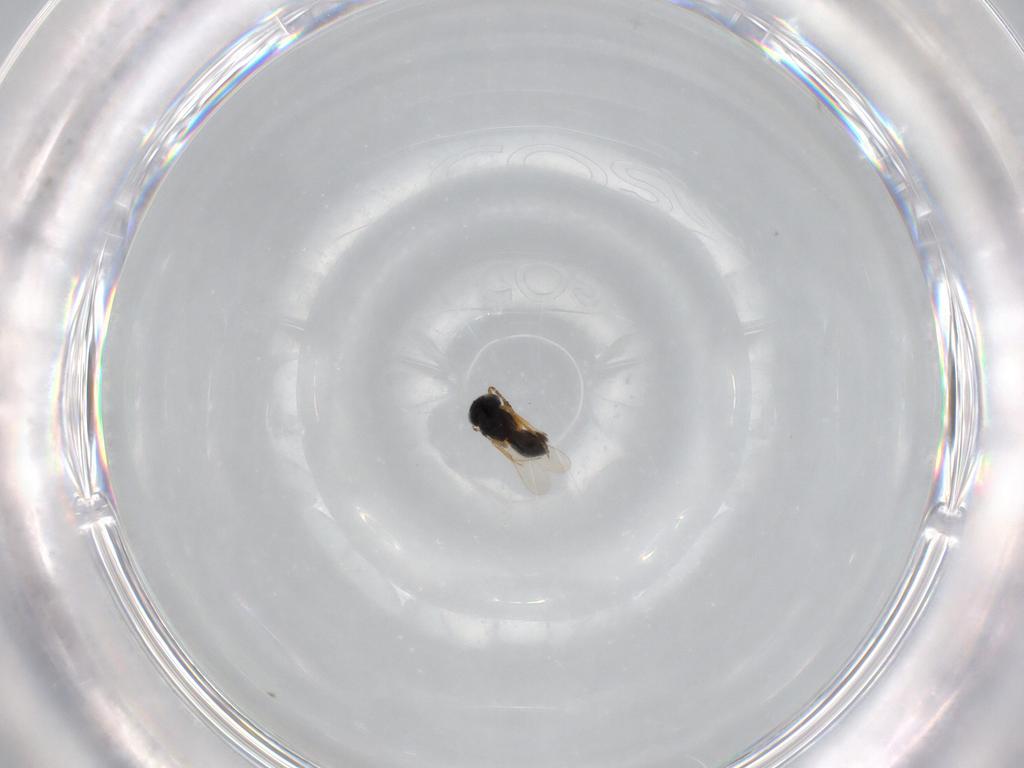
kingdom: Animalia
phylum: Arthropoda
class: Insecta
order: Hymenoptera
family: Scelionidae
